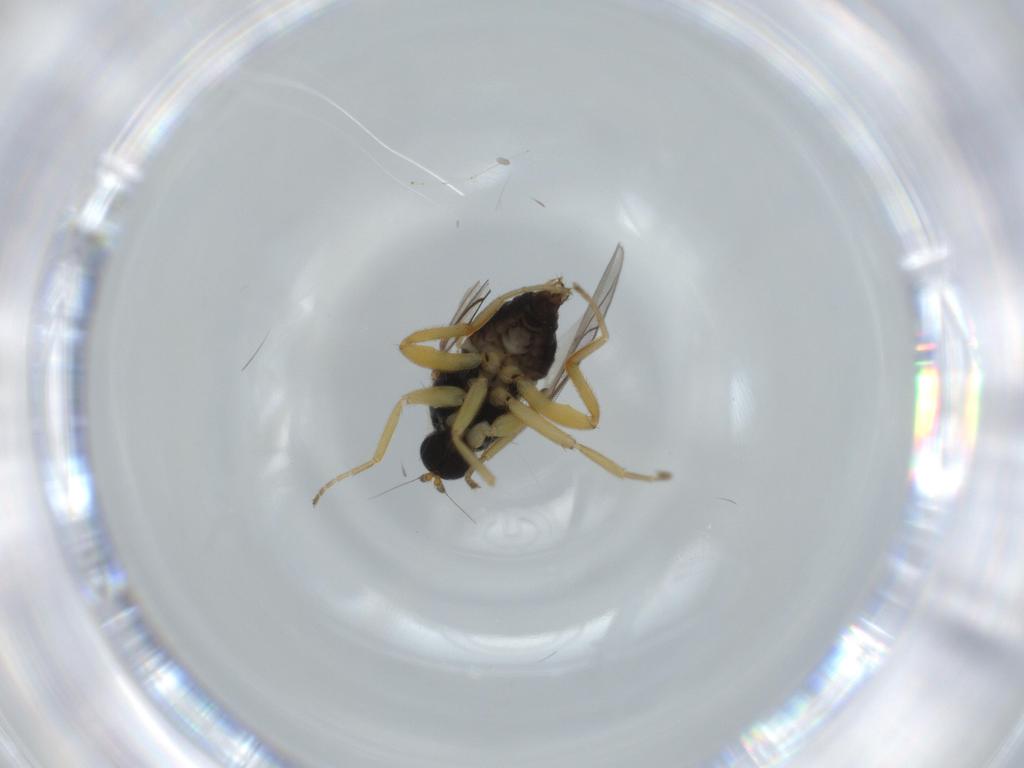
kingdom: Animalia
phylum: Arthropoda
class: Insecta
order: Diptera
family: Hybotidae
